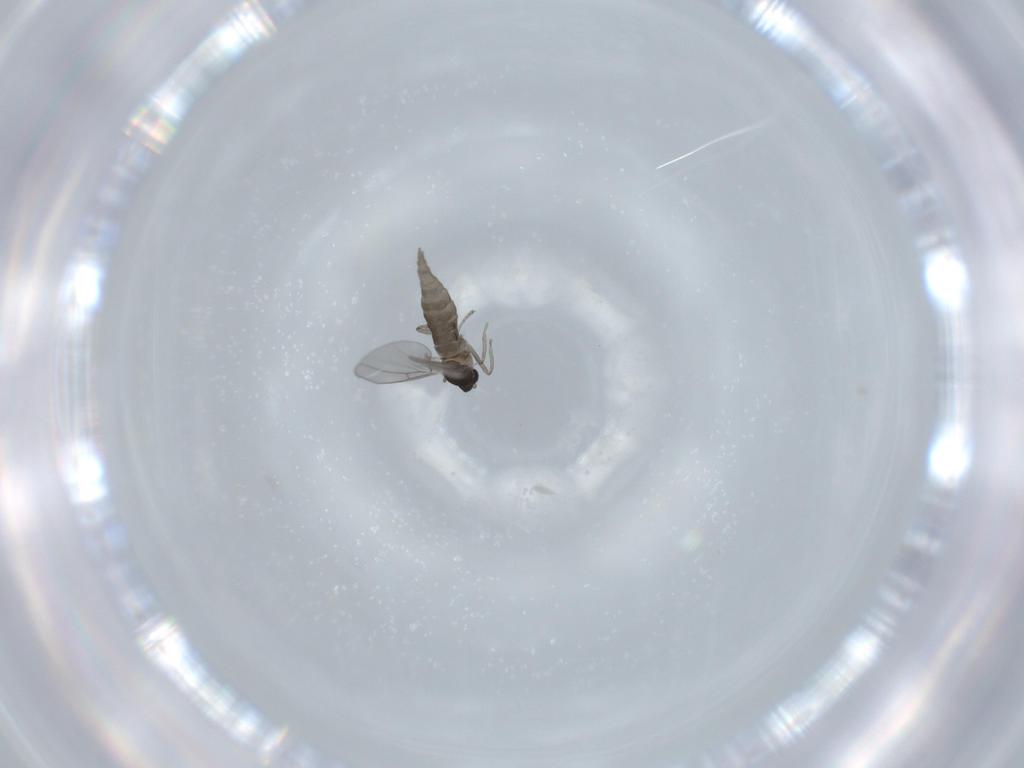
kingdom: Animalia
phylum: Arthropoda
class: Insecta
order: Diptera
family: Cecidomyiidae
